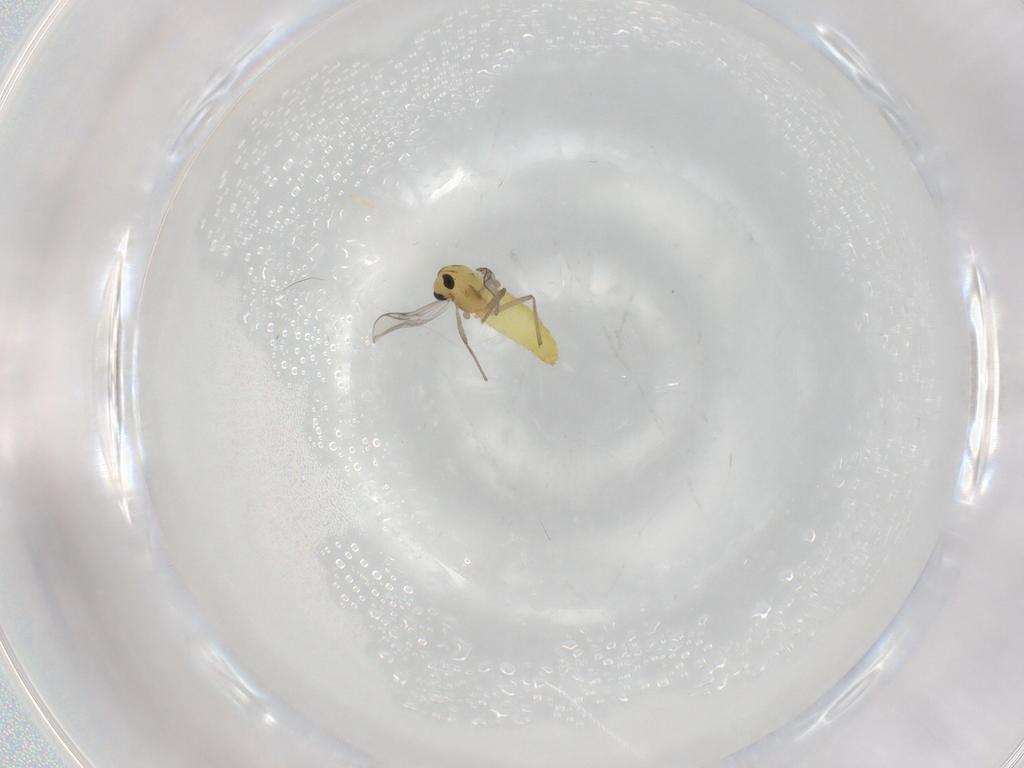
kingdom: Animalia
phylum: Arthropoda
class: Insecta
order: Diptera
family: Chironomidae
